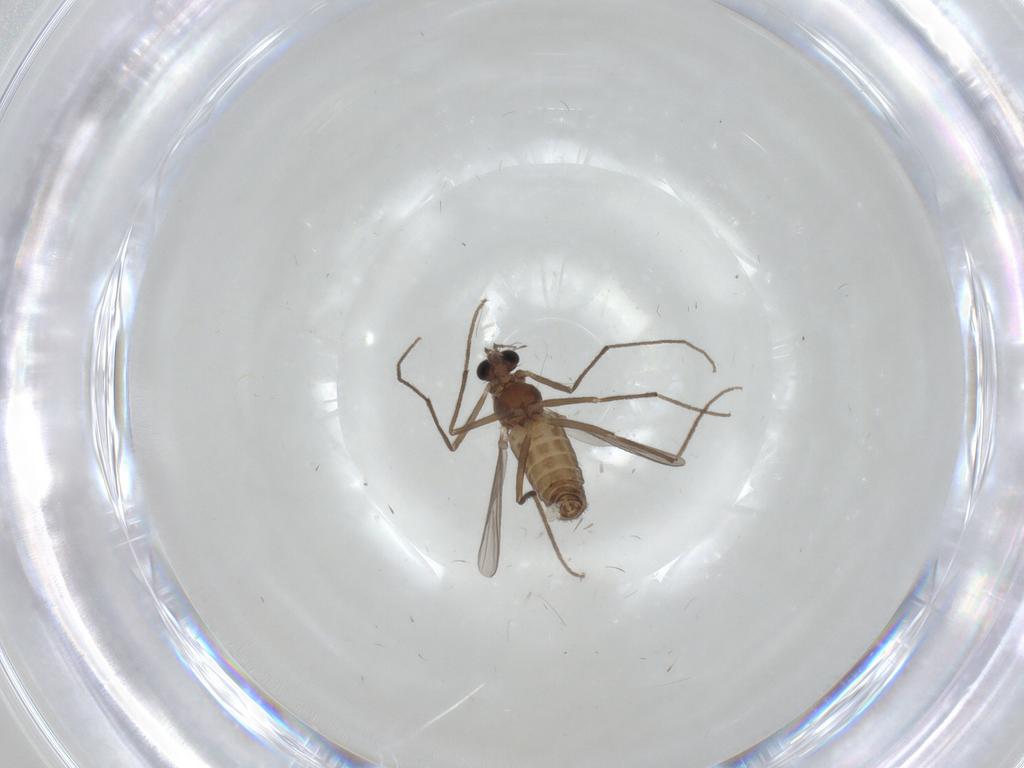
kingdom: Animalia
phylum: Arthropoda
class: Insecta
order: Diptera
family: Chironomidae
